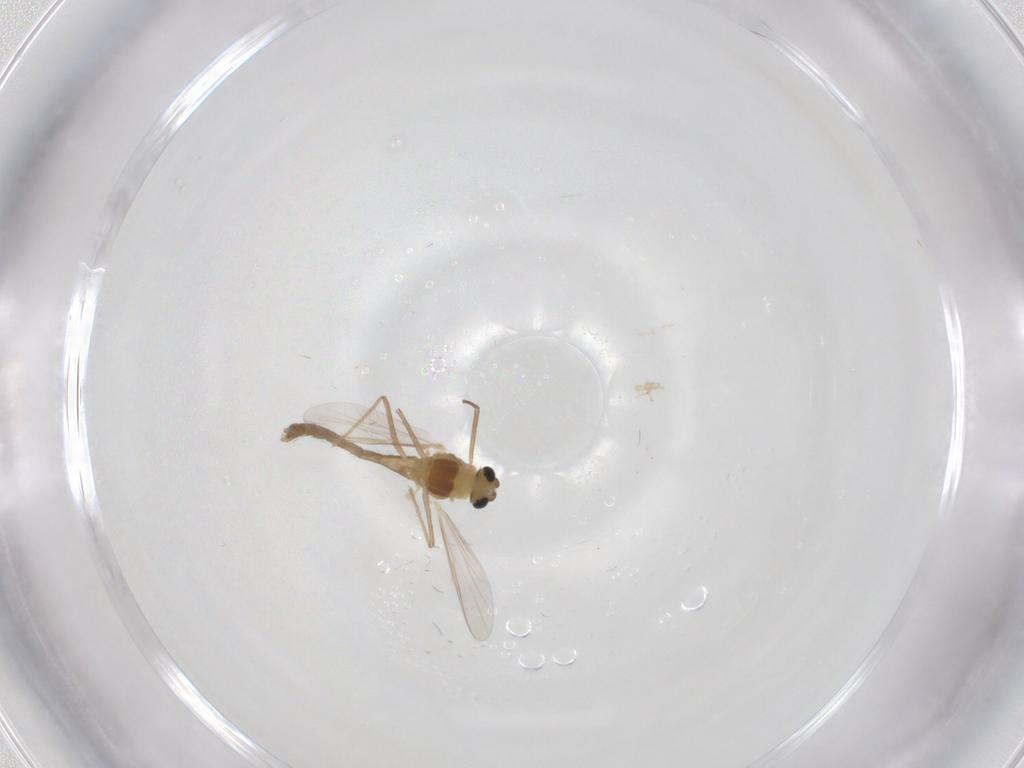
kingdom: Animalia
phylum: Arthropoda
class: Insecta
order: Diptera
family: Chironomidae
